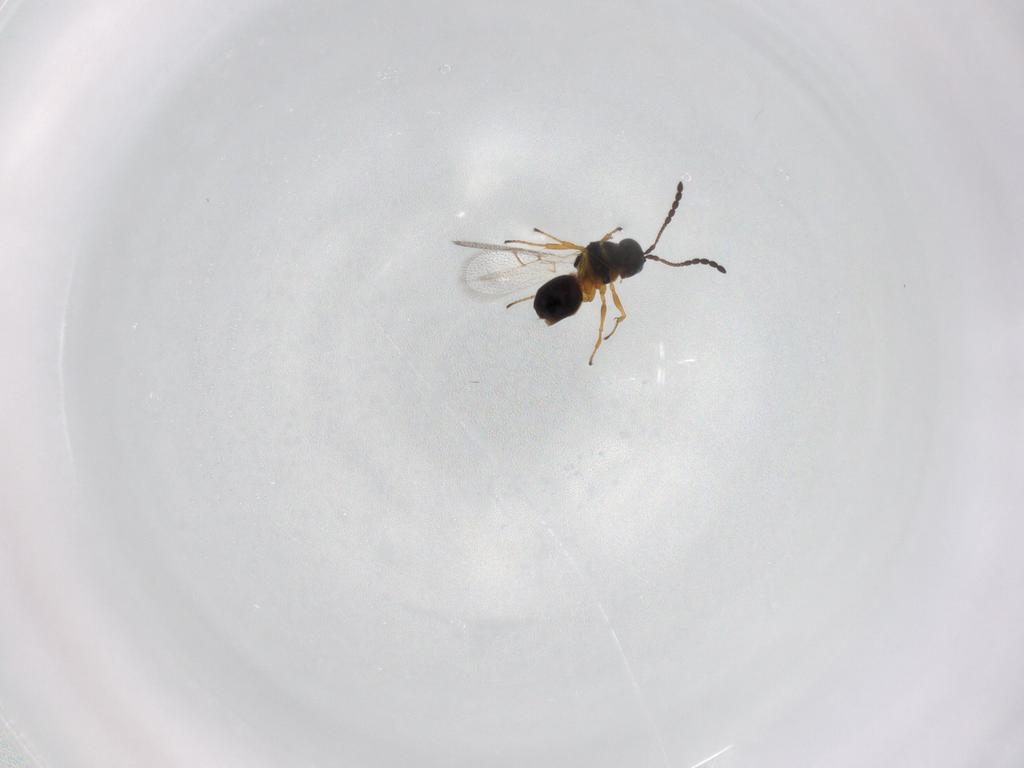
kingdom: Animalia
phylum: Arthropoda
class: Insecta
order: Hymenoptera
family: Figitidae
